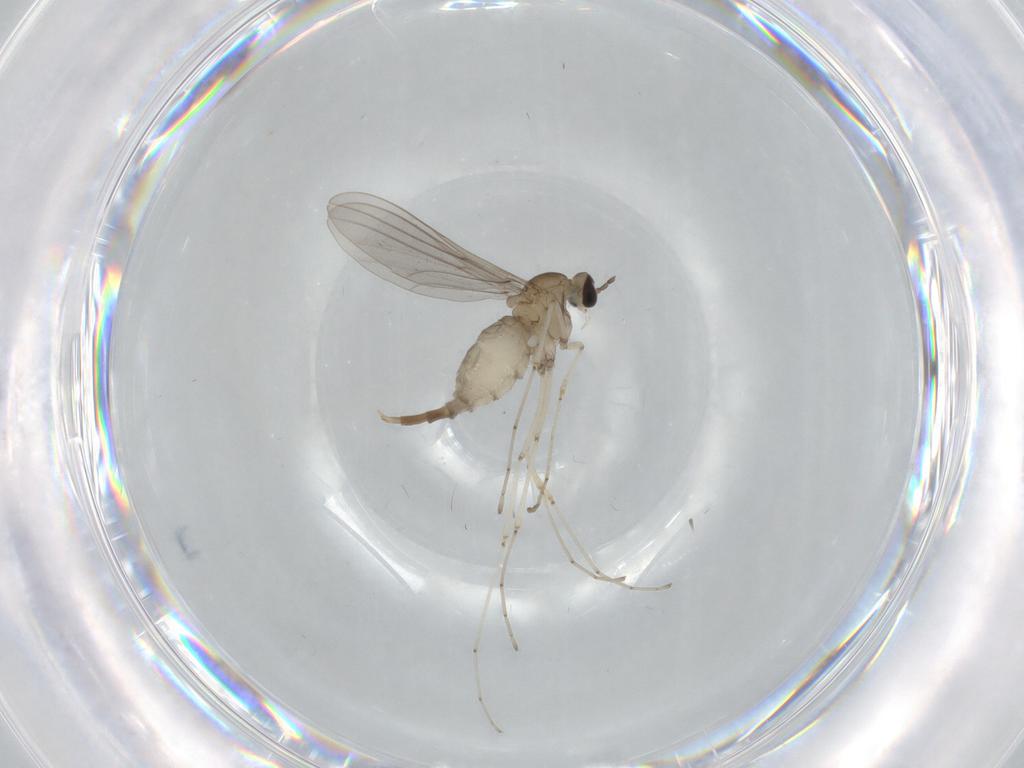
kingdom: Animalia
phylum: Arthropoda
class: Insecta
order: Diptera
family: Cecidomyiidae
